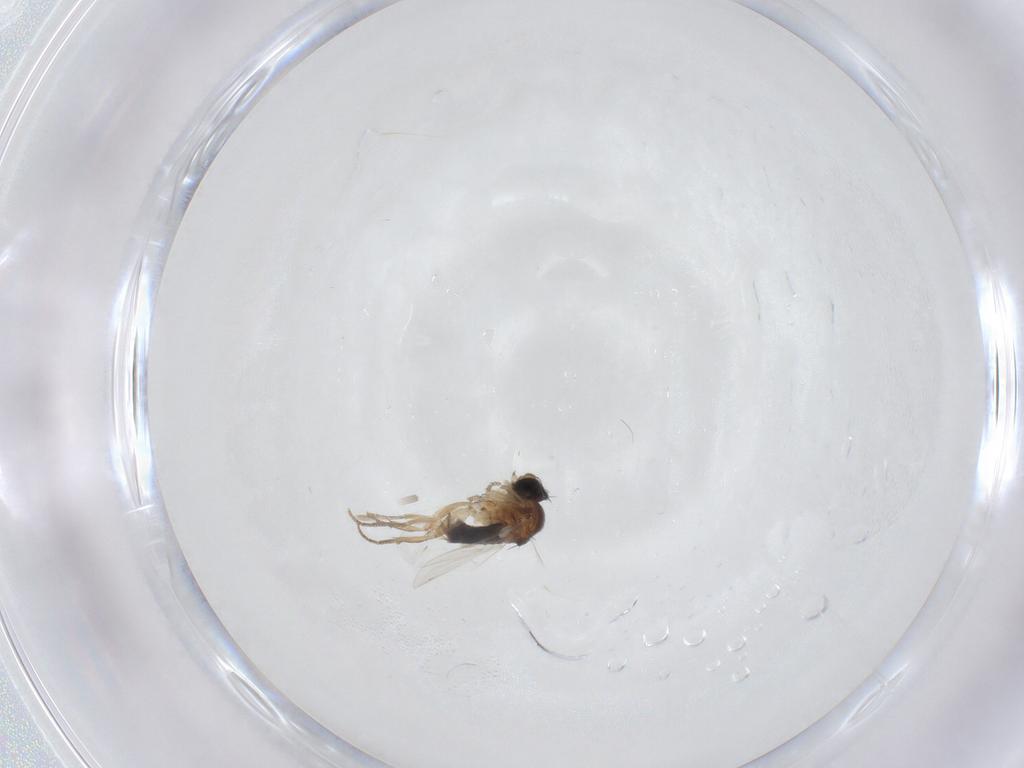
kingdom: Animalia
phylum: Arthropoda
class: Insecta
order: Diptera
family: Phoridae
